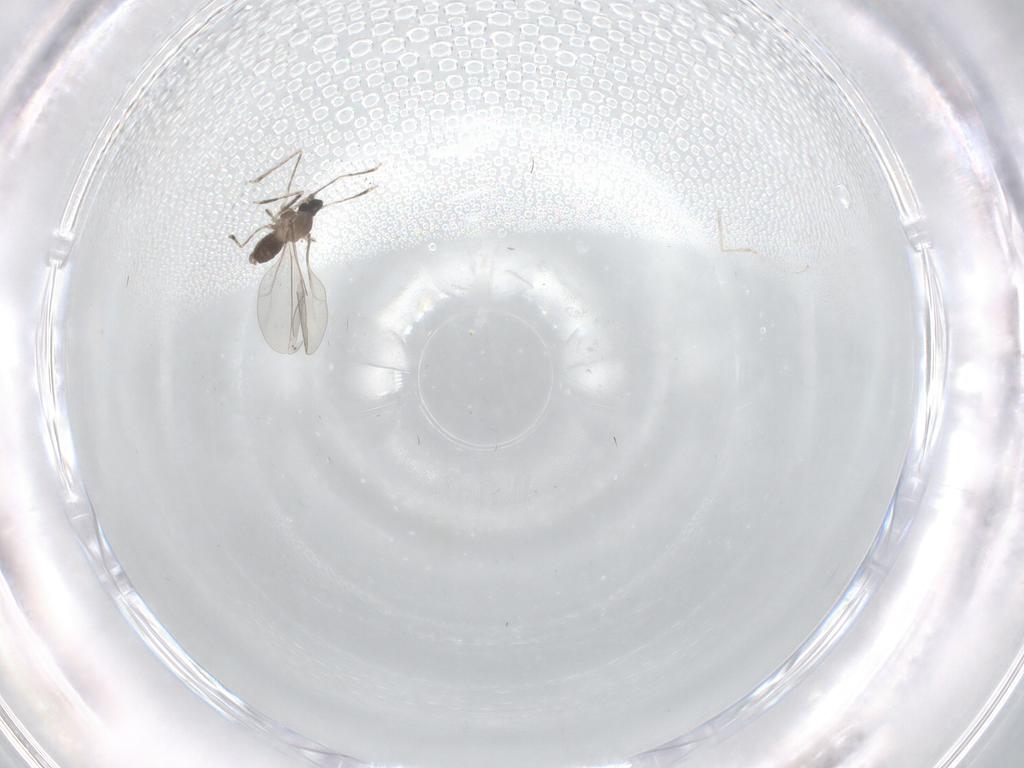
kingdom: Animalia
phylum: Arthropoda
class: Insecta
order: Diptera
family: Cecidomyiidae
